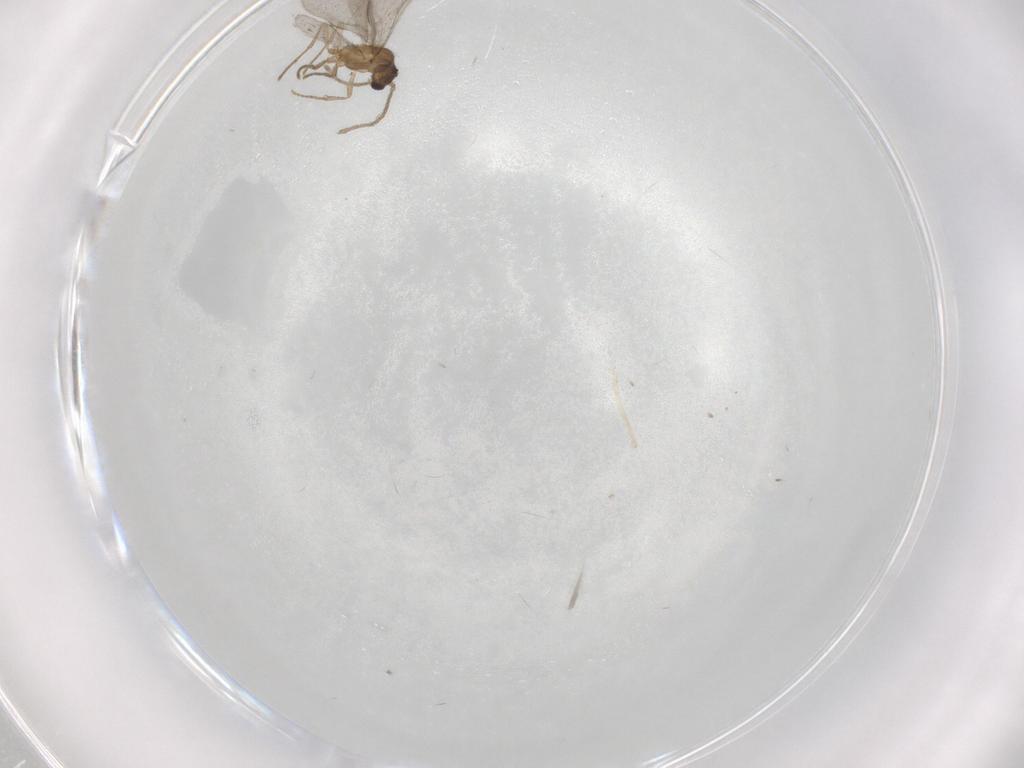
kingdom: Animalia
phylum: Arthropoda
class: Insecta
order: Hymenoptera
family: Formicidae
